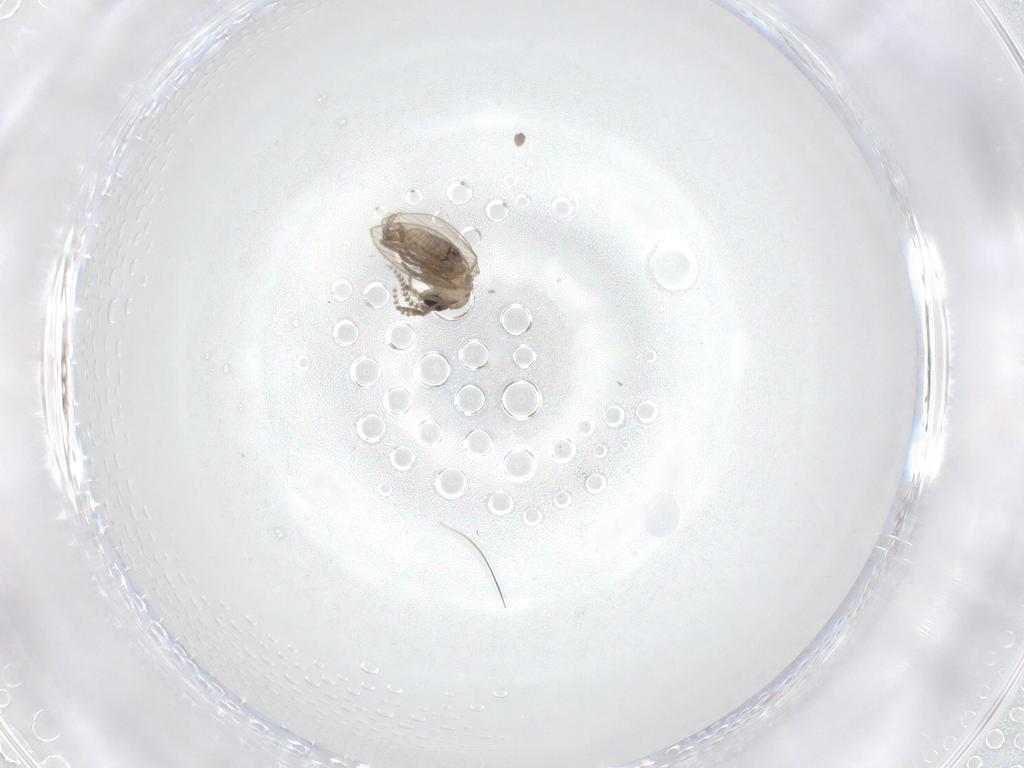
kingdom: Animalia
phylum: Arthropoda
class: Insecta
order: Diptera
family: Psychodidae
